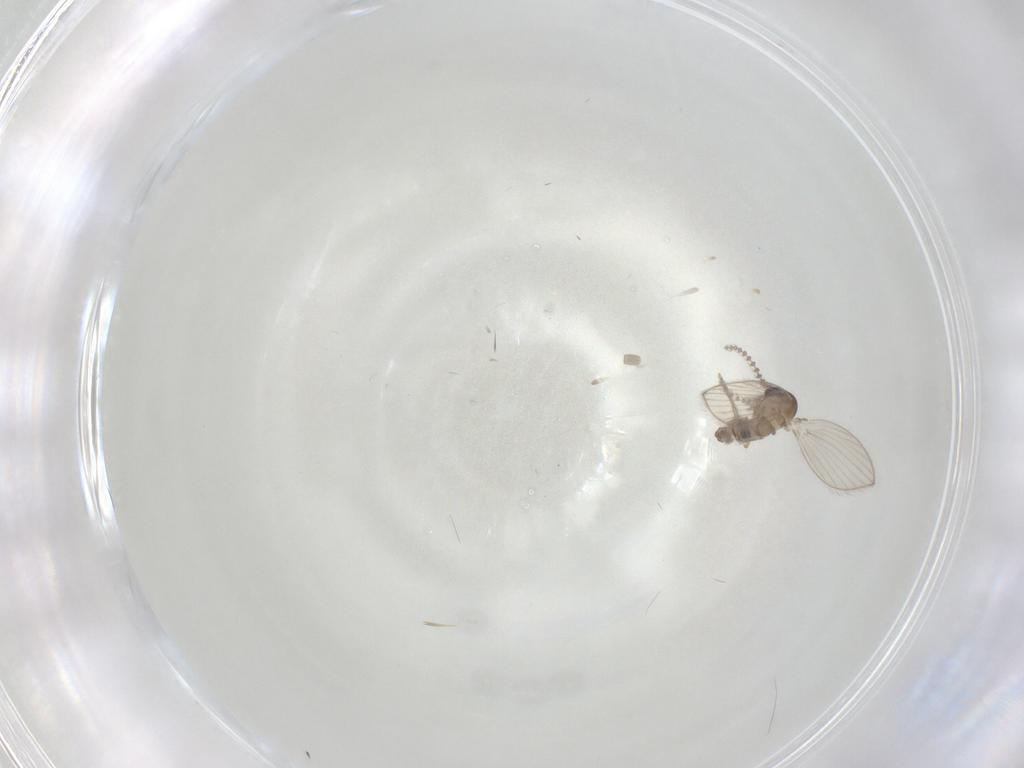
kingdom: Animalia
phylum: Arthropoda
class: Insecta
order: Diptera
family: Psychodidae
